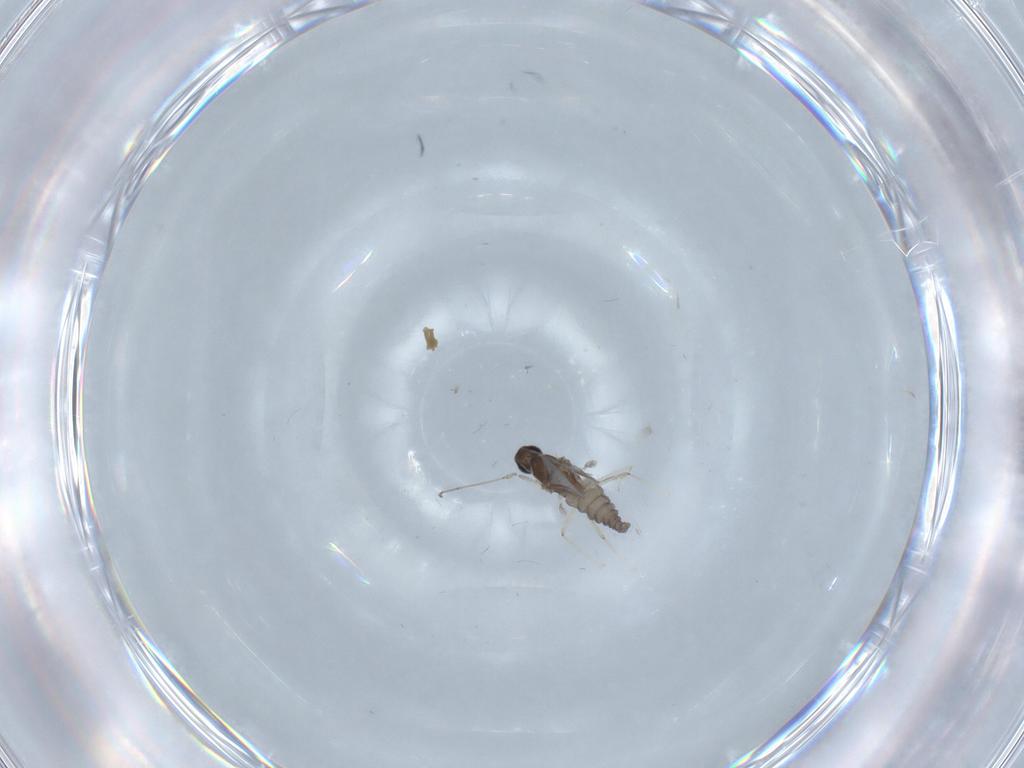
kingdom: Animalia
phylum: Arthropoda
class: Insecta
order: Diptera
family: Cecidomyiidae
